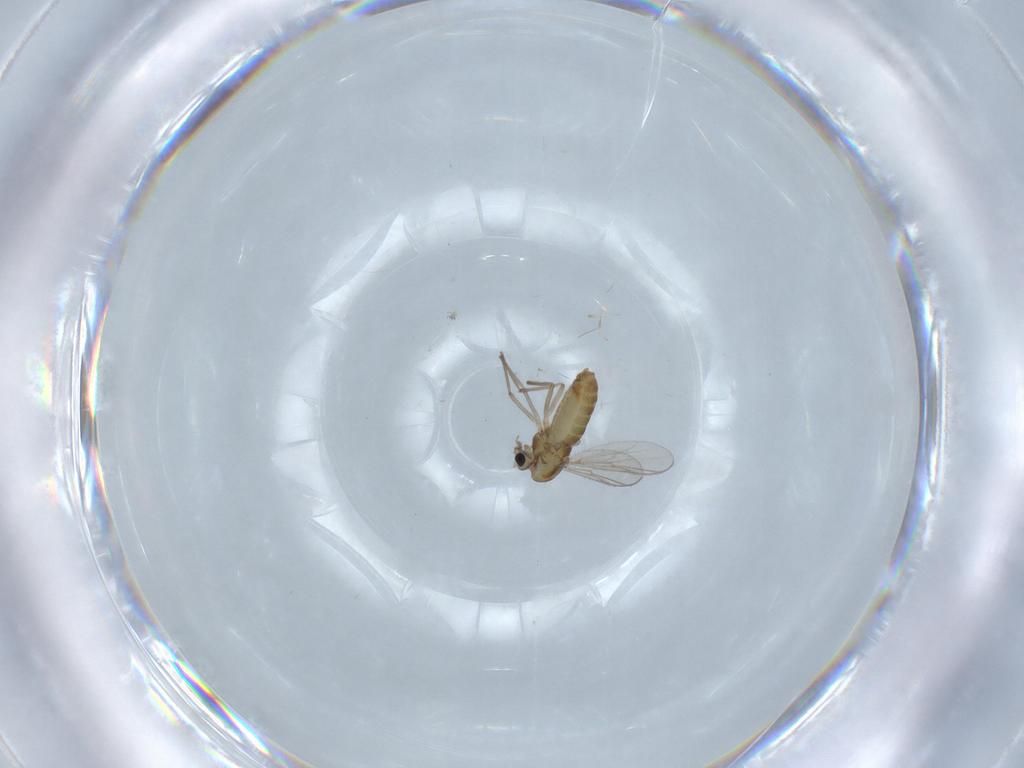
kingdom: Animalia
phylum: Arthropoda
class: Insecta
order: Diptera
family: Chironomidae
